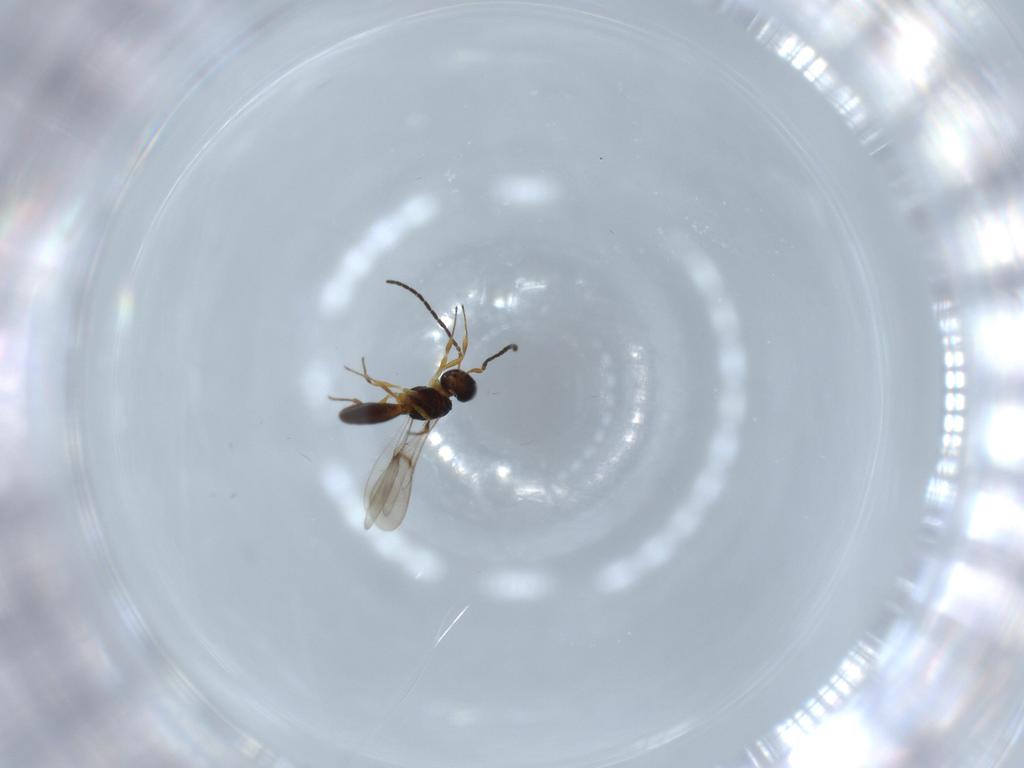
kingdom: Animalia
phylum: Arthropoda
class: Insecta
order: Hymenoptera
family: Scelionidae
